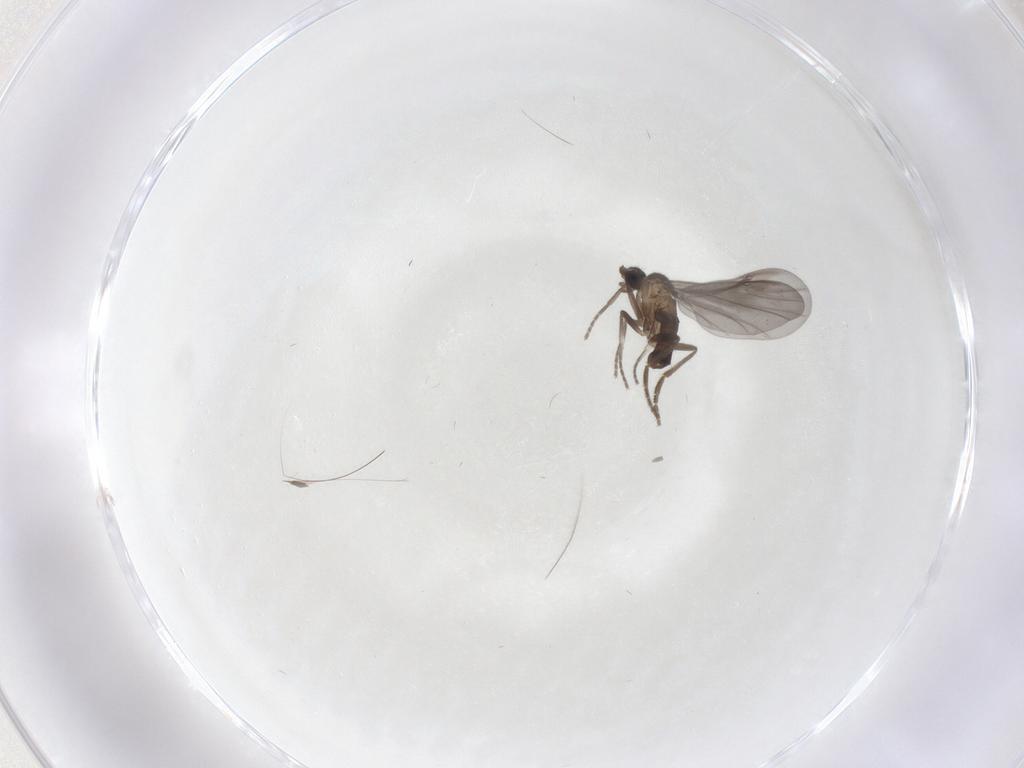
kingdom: Animalia
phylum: Arthropoda
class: Insecta
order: Diptera
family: Phoridae
